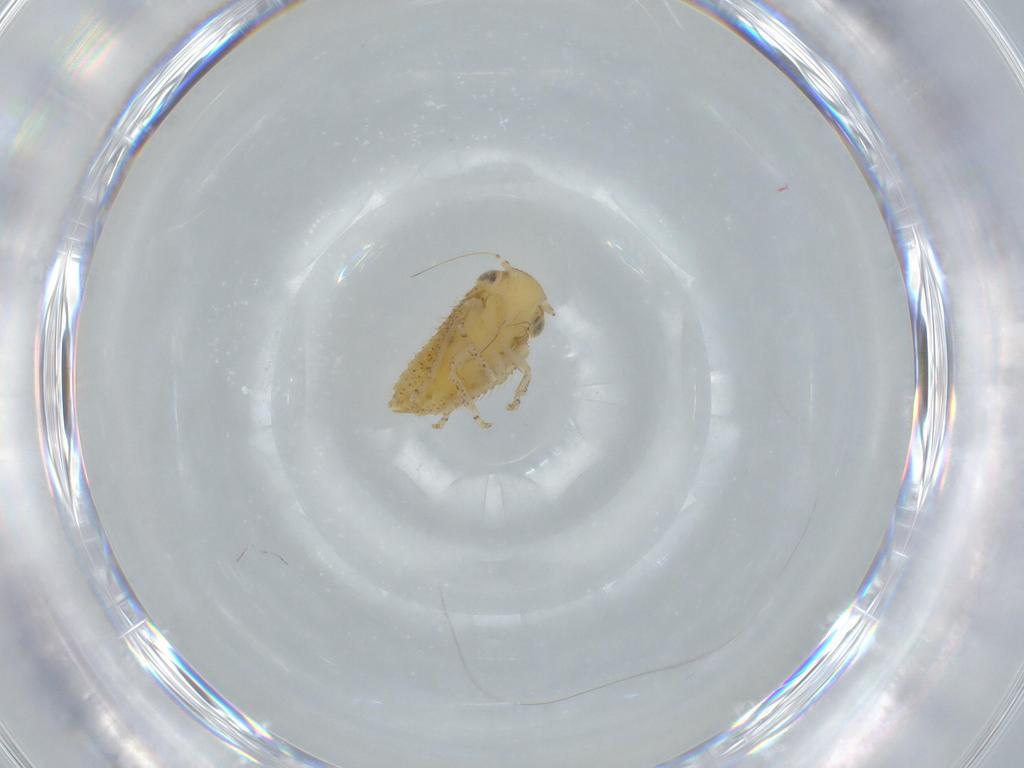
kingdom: Animalia
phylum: Arthropoda
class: Insecta
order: Hemiptera
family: Cicadellidae
